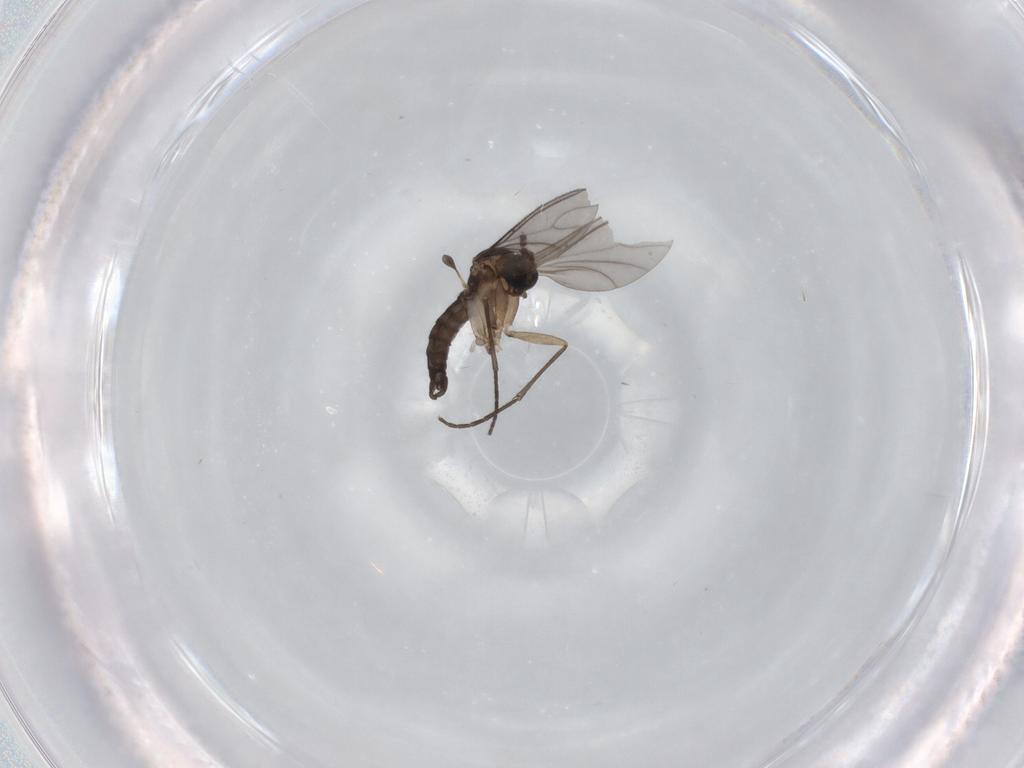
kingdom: Animalia
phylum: Arthropoda
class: Insecta
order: Diptera
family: Sciaridae
